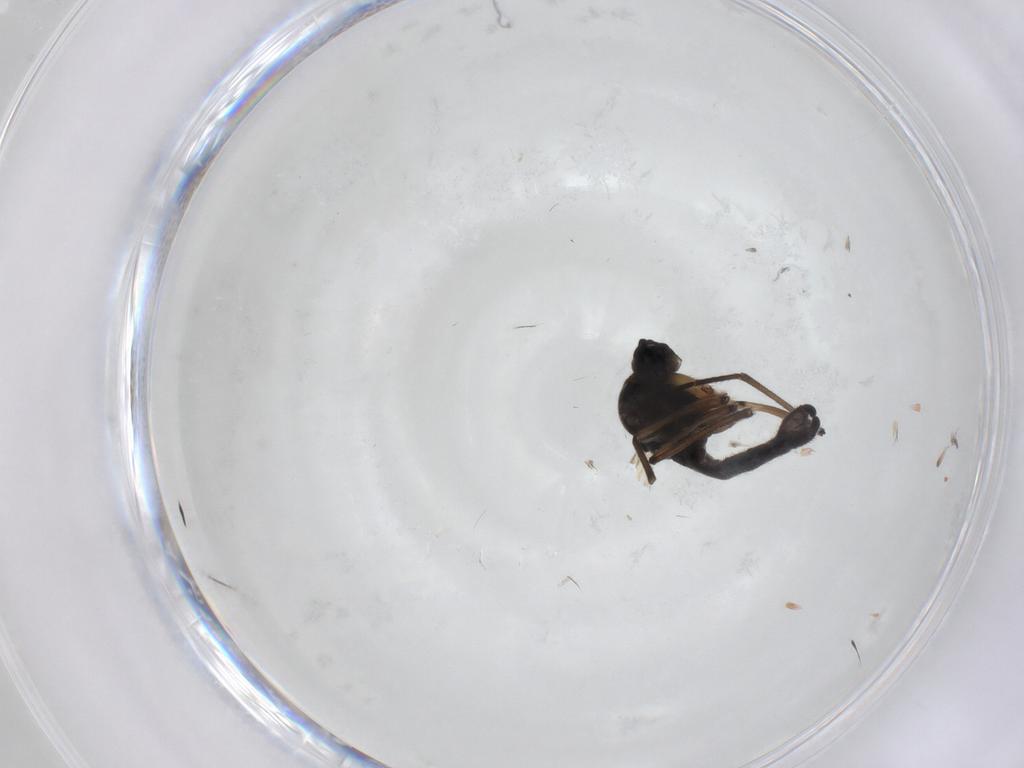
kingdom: Animalia
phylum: Arthropoda
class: Insecta
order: Diptera
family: Sciaridae
